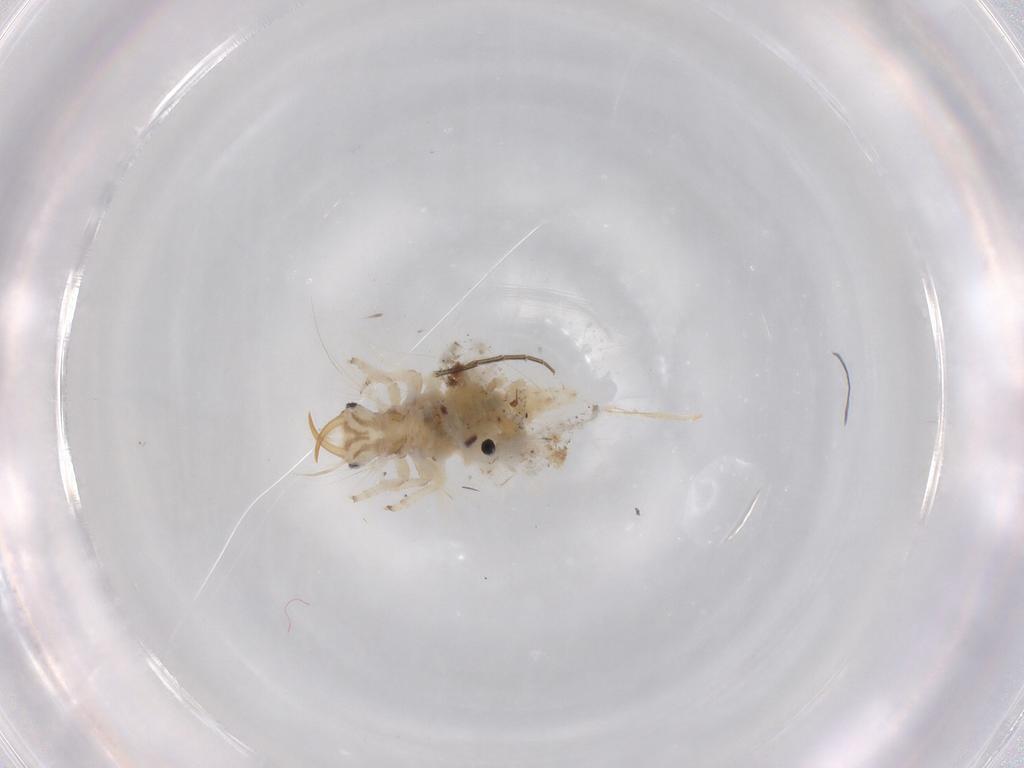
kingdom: Animalia
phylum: Arthropoda
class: Insecta
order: Neuroptera
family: Chrysopidae
